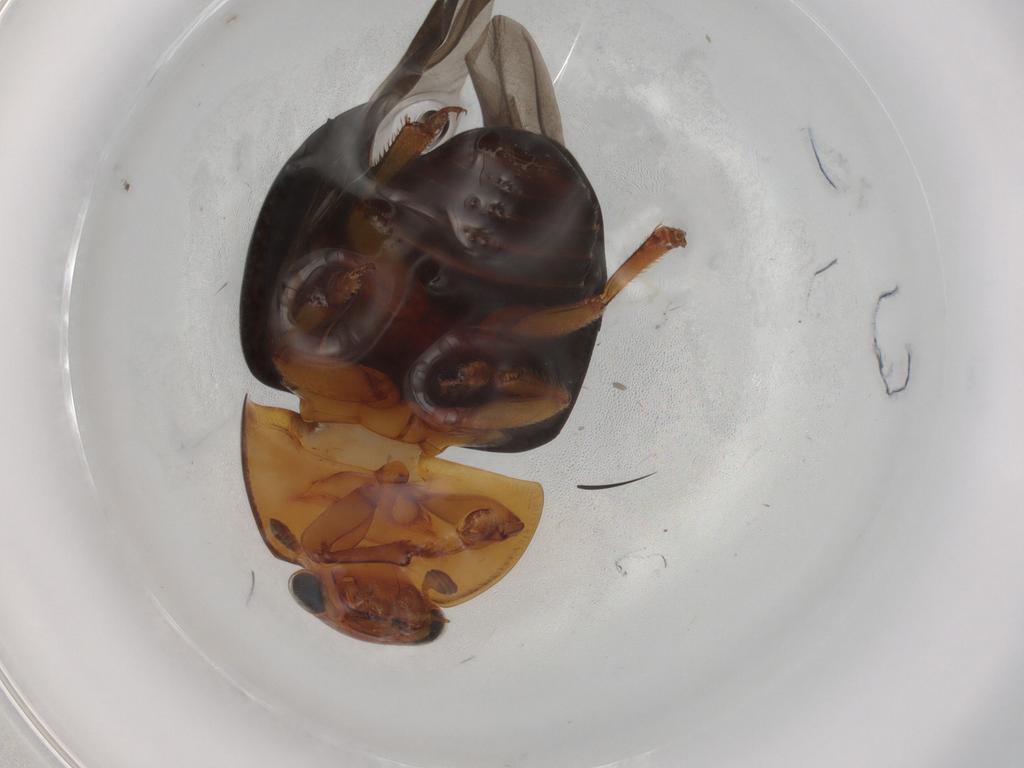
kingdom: Animalia
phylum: Arthropoda
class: Insecta
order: Coleoptera
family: Nitidulidae
